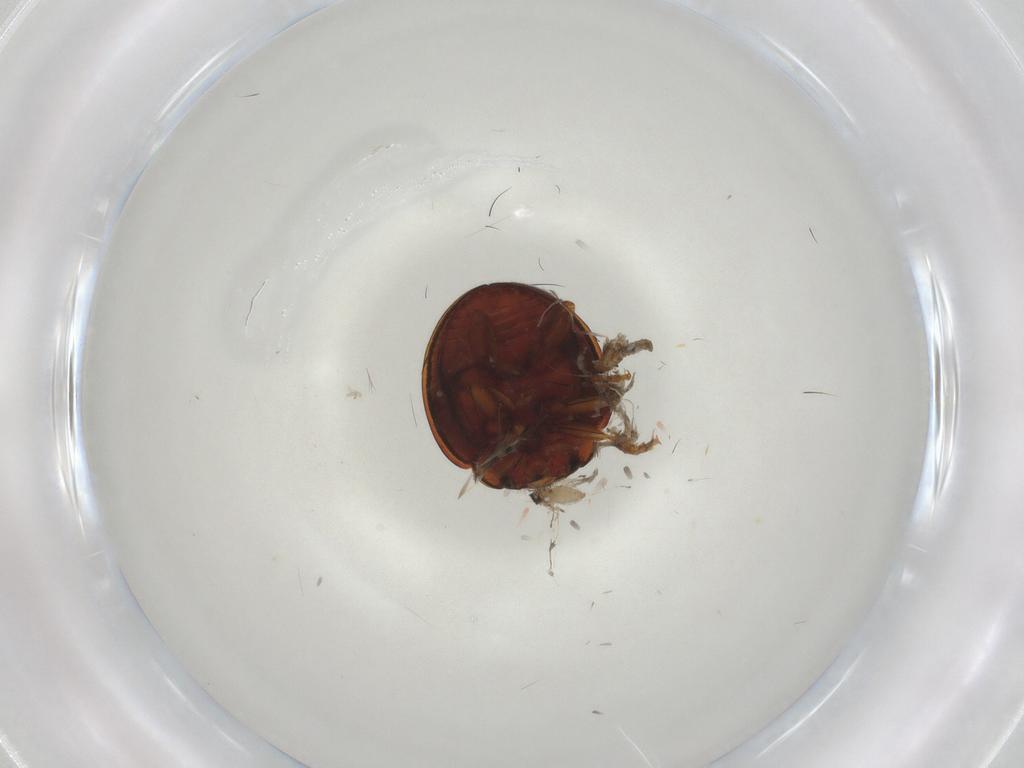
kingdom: Animalia
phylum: Arthropoda
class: Insecta
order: Coleoptera
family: Coccinellidae
